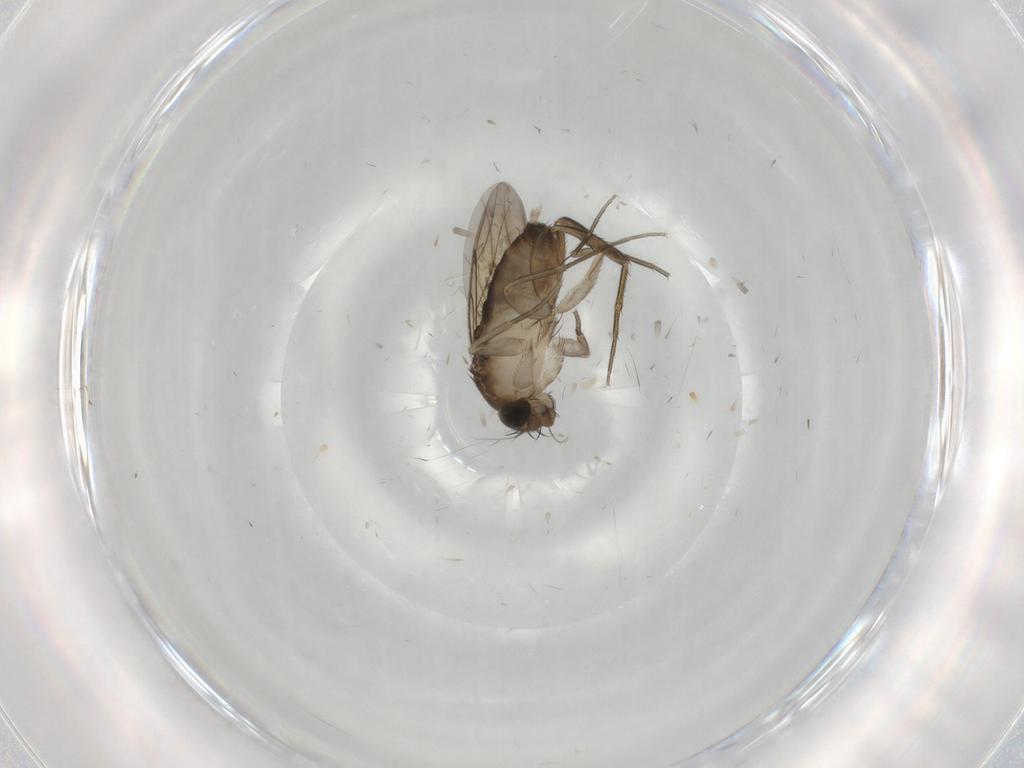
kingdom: Animalia
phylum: Arthropoda
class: Insecta
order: Diptera
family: Phoridae
